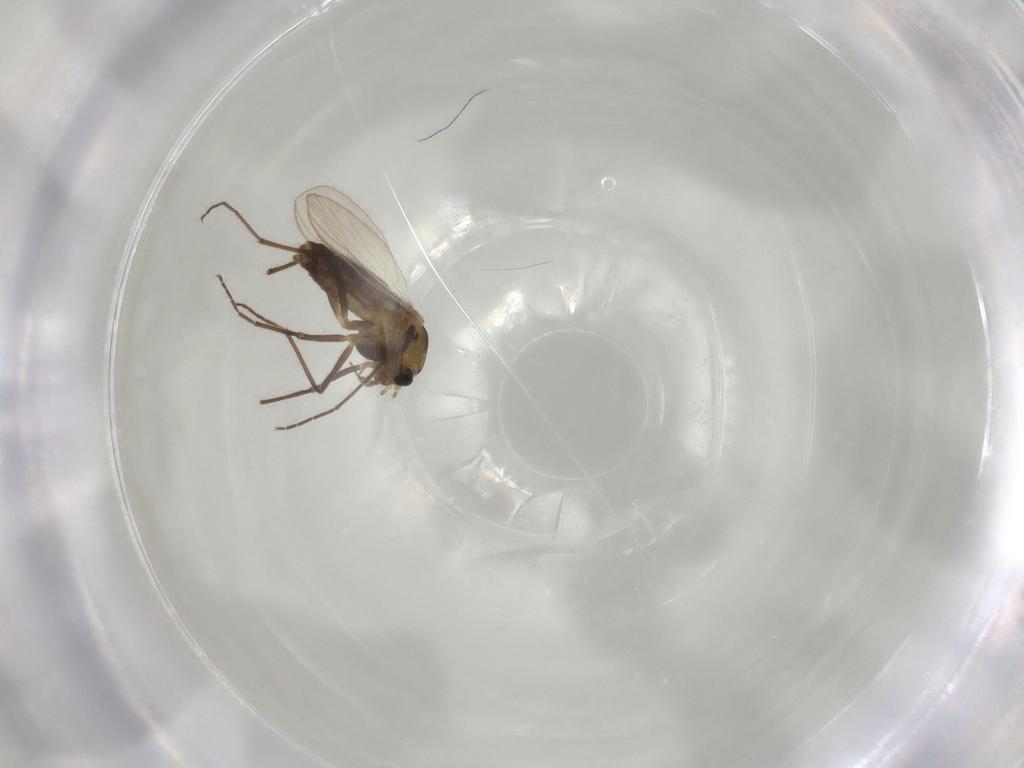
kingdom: Animalia
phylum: Arthropoda
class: Insecta
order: Diptera
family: Chironomidae
